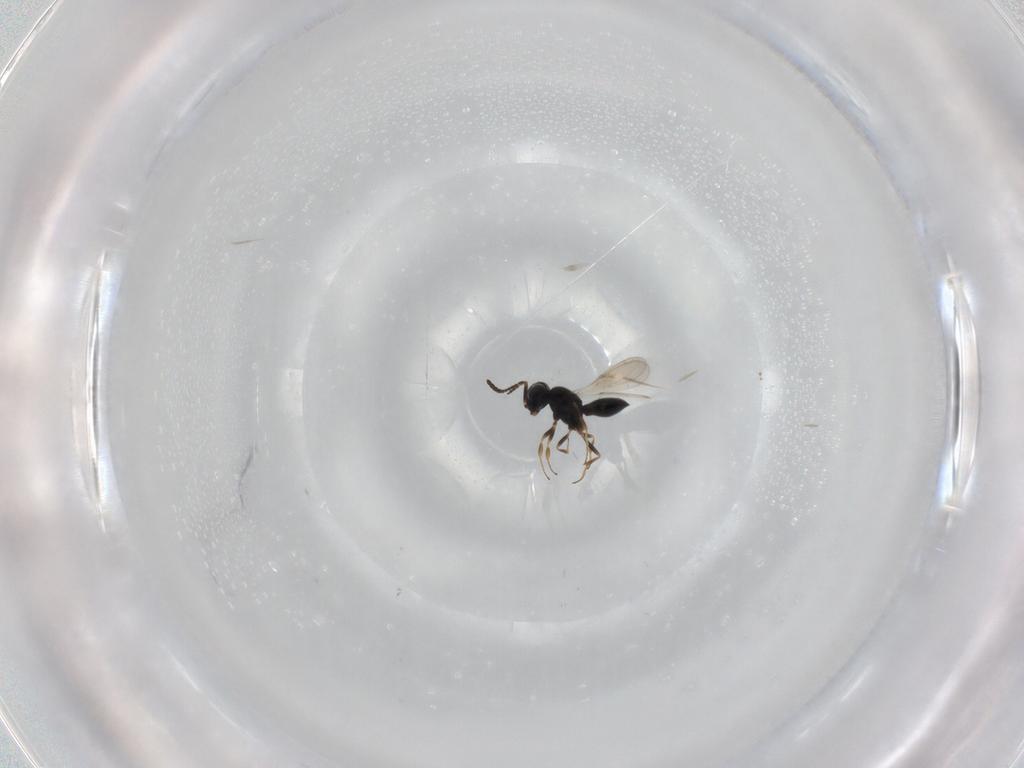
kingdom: Animalia
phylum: Arthropoda
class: Insecta
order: Hymenoptera
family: Scelionidae
